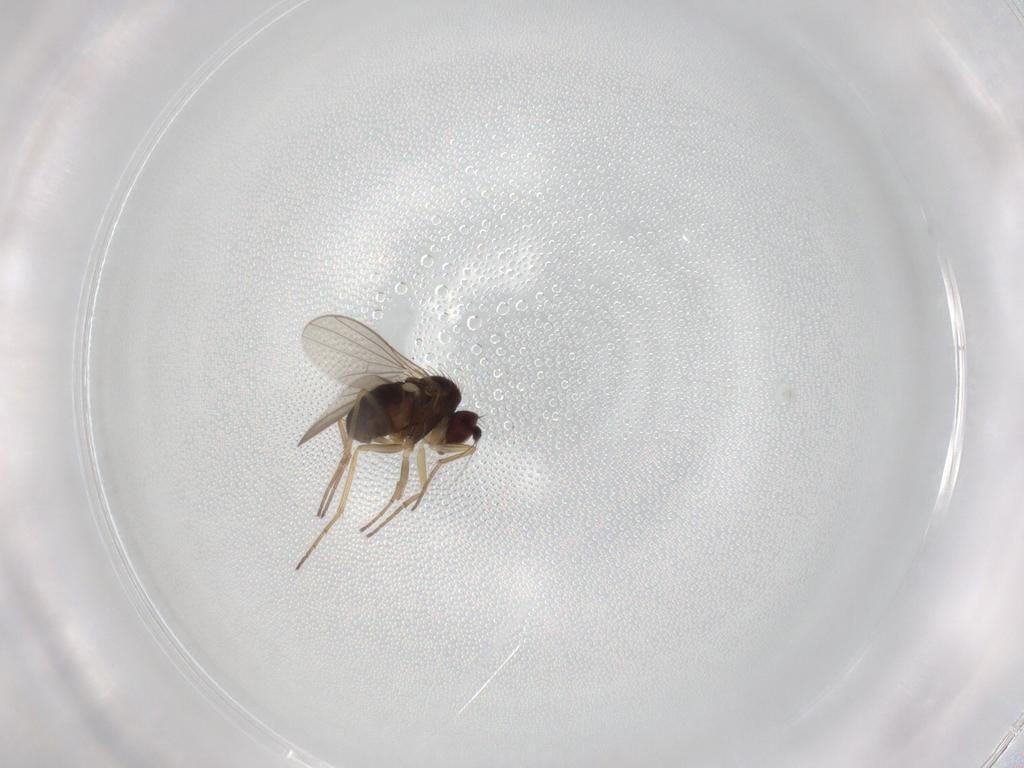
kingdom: Animalia
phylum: Arthropoda
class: Insecta
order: Diptera
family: Dolichopodidae
